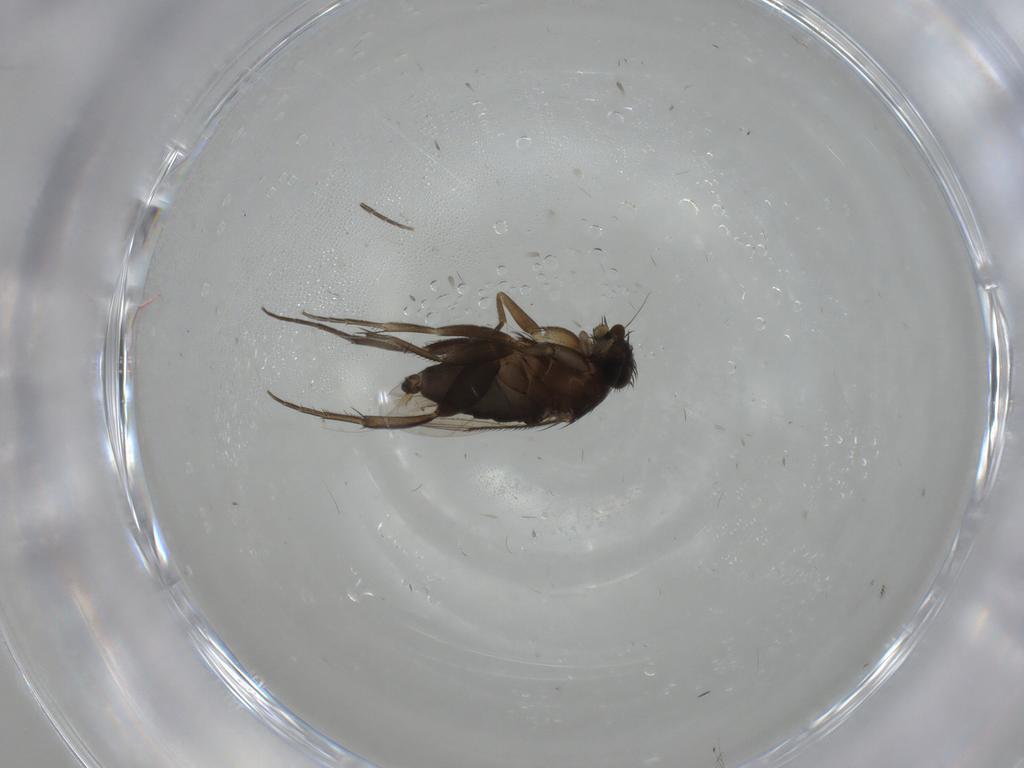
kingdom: Animalia
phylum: Arthropoda
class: Insecta
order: Diptera
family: Phoridae
